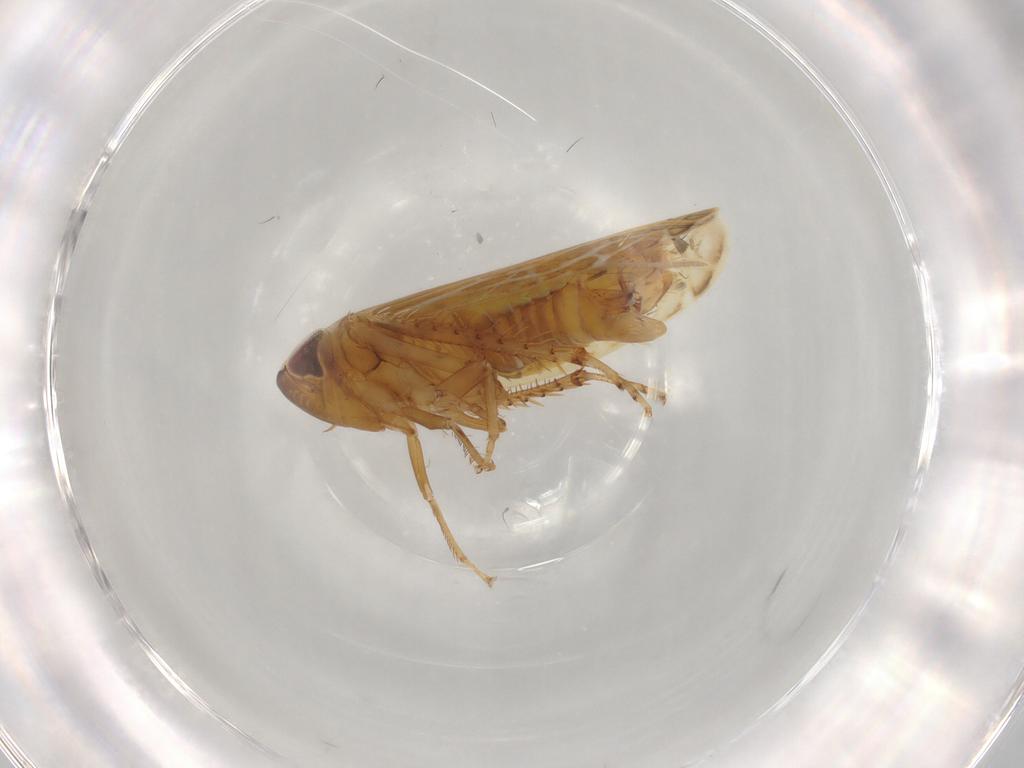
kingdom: Animalia
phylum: Arthropoda
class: Insecta
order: Hemiptera
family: Cicadellidae
